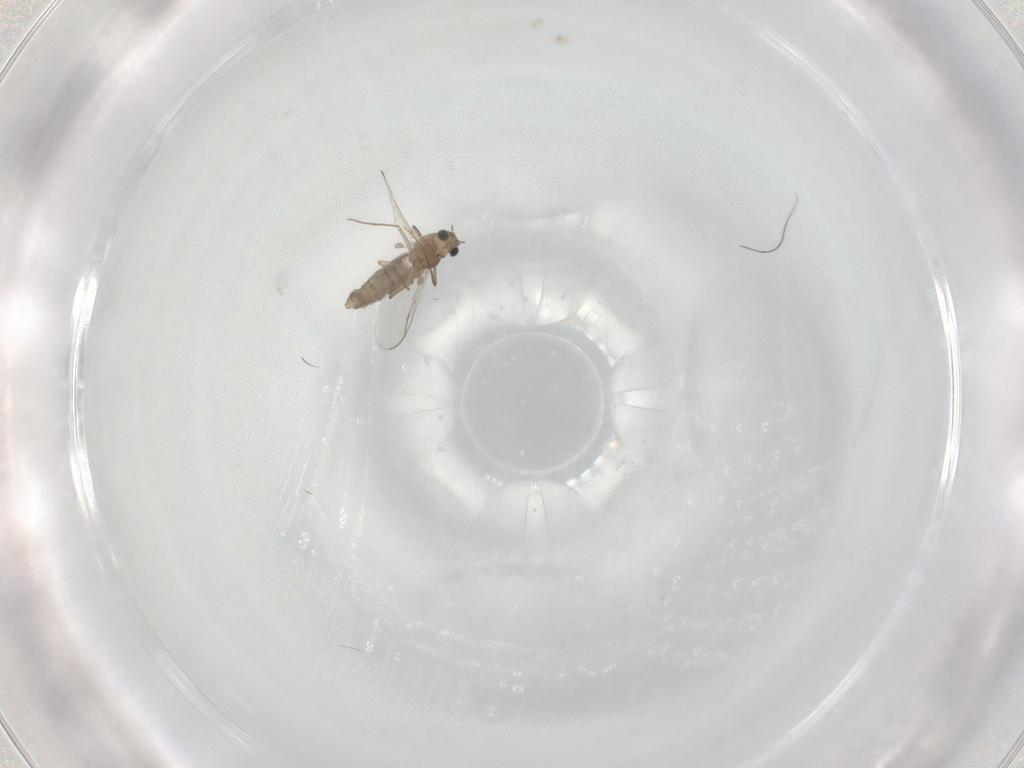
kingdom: Animalia
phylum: Arthropoda
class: Insecta
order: Diptera
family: Chironomidae
